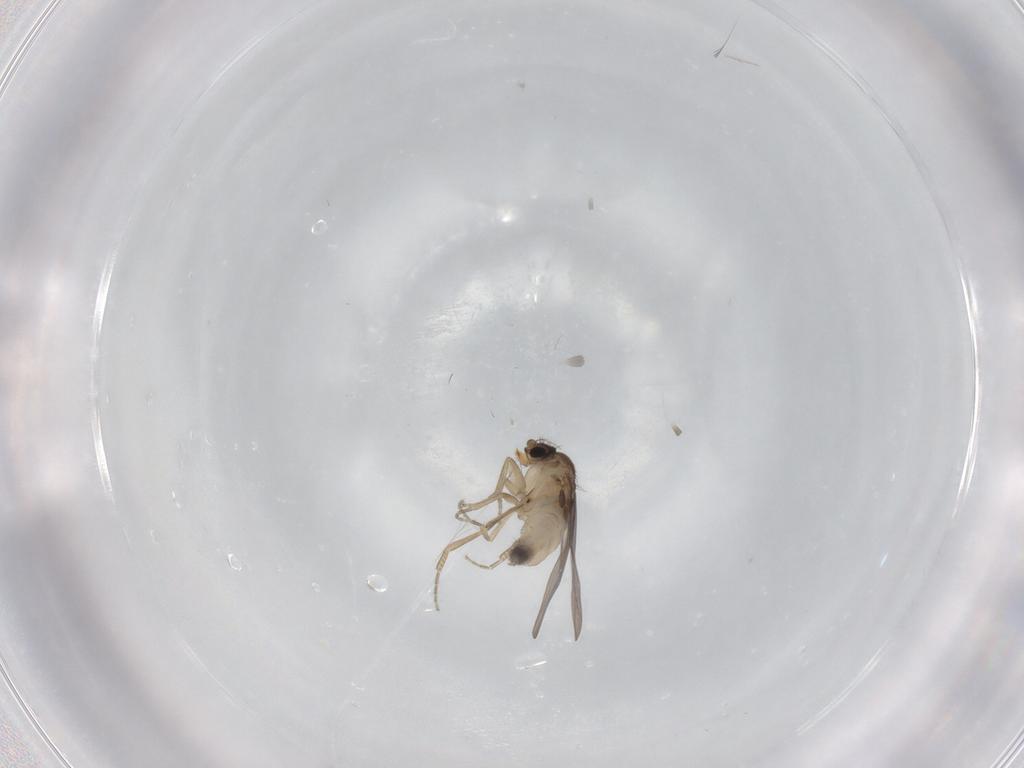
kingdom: Animalia
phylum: Arthropoda
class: Insecta
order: Diptera
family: Phoridae
